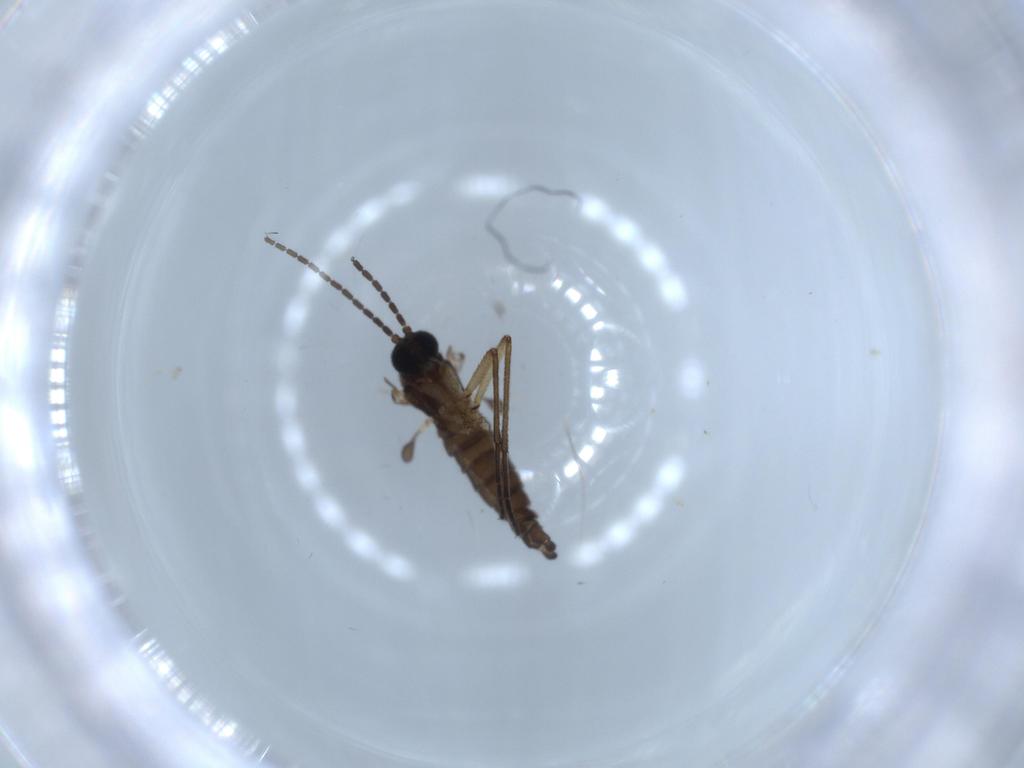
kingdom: Animalia
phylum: Arthropoda
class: Insecta
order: Diptera
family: Sciaridae
